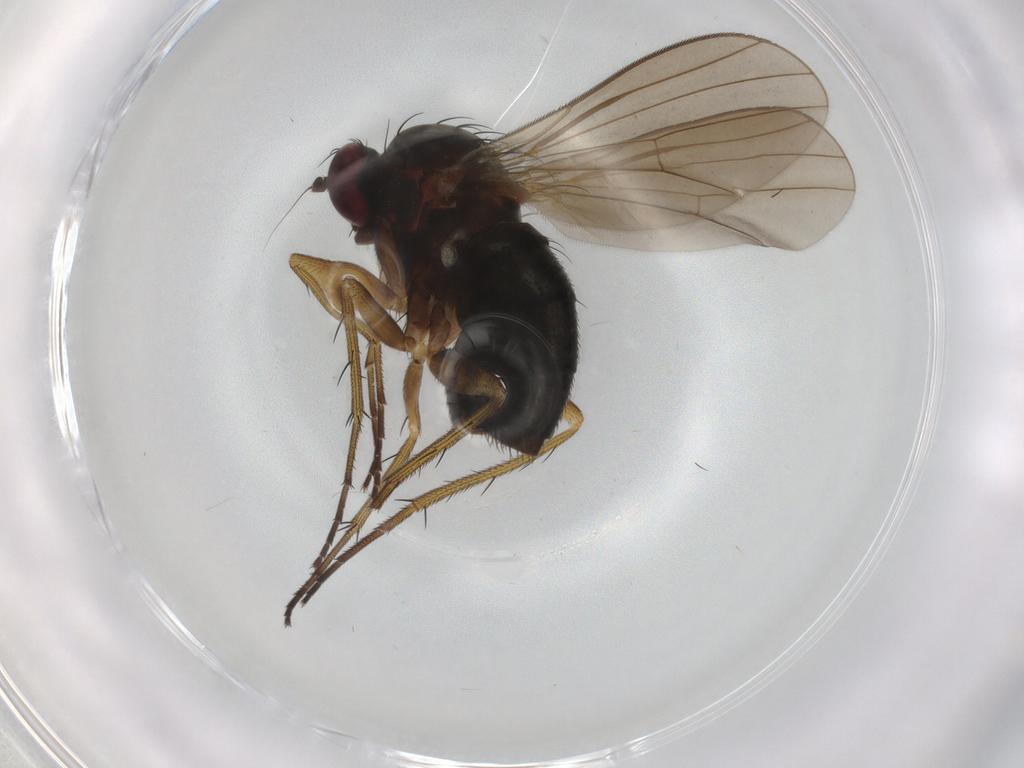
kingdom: Animalia
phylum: Arthropoda
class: Insecta
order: Diptera
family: Dolichopodidae
